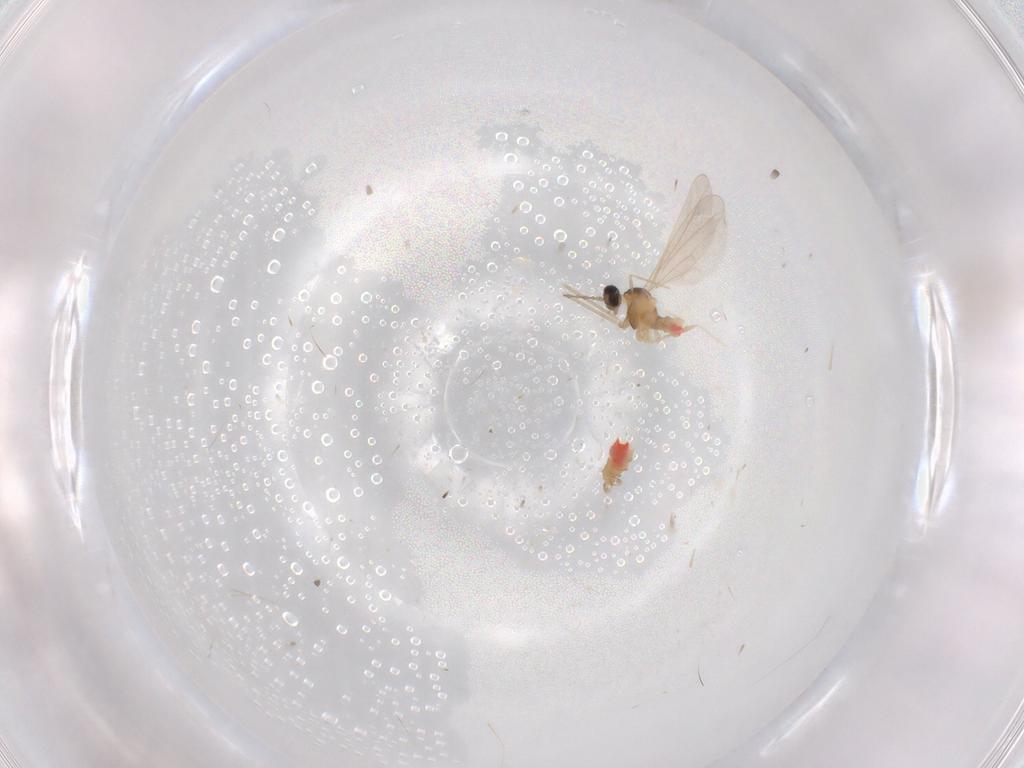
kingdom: Animalia
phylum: Arthropoda
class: Insecta
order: Diptera
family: Cecidomyiidae
